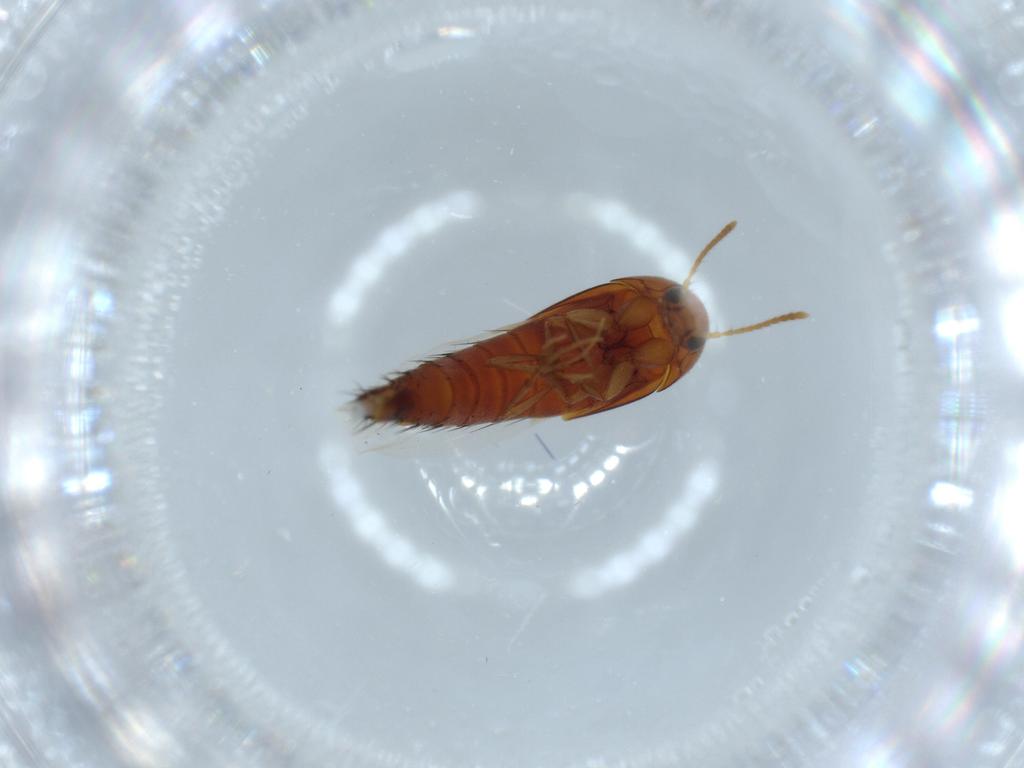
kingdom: Animalia
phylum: Arthropoda
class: Insecta
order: Coleoptera
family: Staphylinidae
